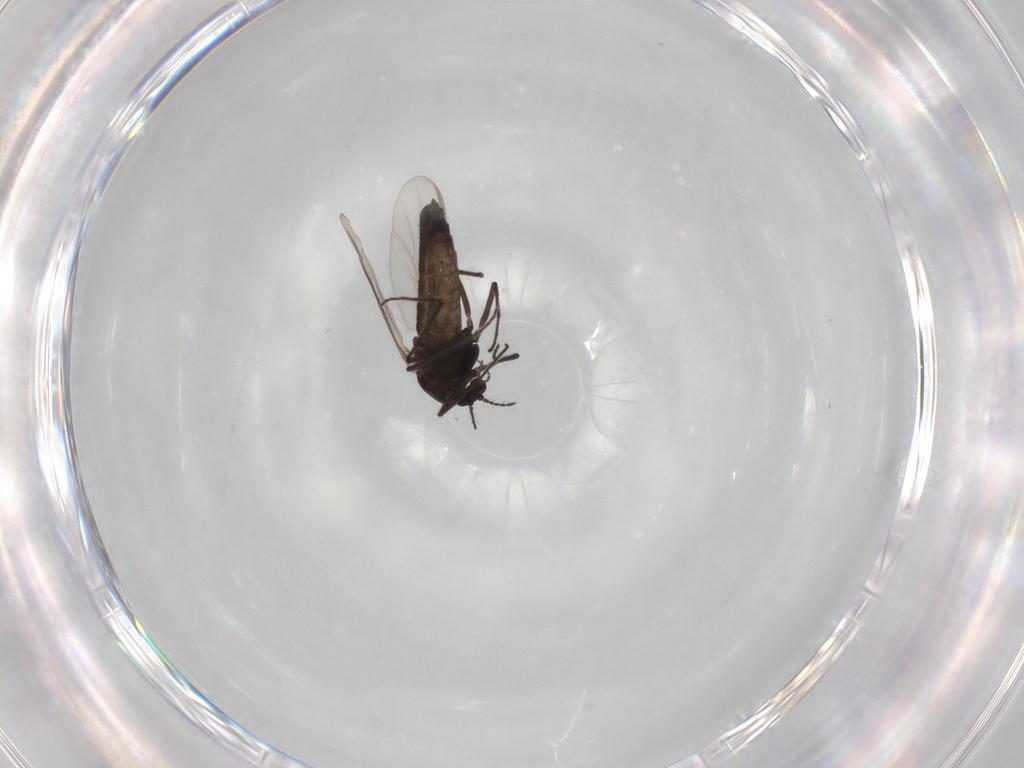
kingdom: Animalia
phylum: Arthropoda
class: Insecta
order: Diptera
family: Chironomidae
